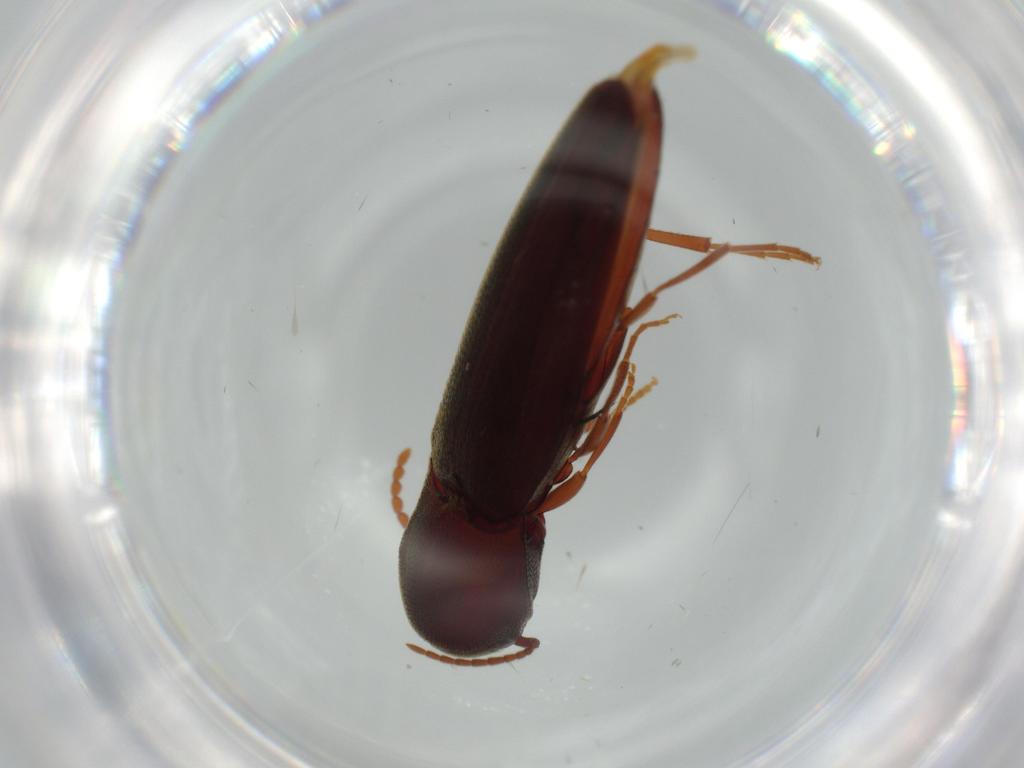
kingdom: Animalia
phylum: Arthropoda
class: Insecta
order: Coleoptera
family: Eucnemidae
